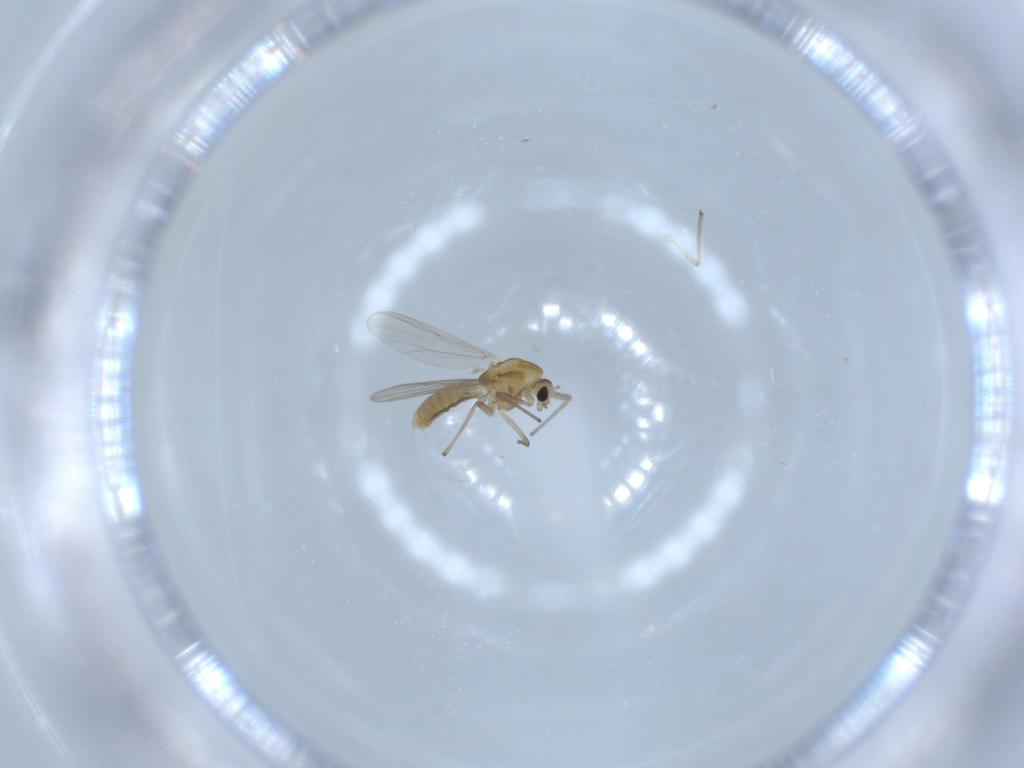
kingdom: Animalia
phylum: Arthropoda
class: Insecta
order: Diptera
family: Chironomidae
